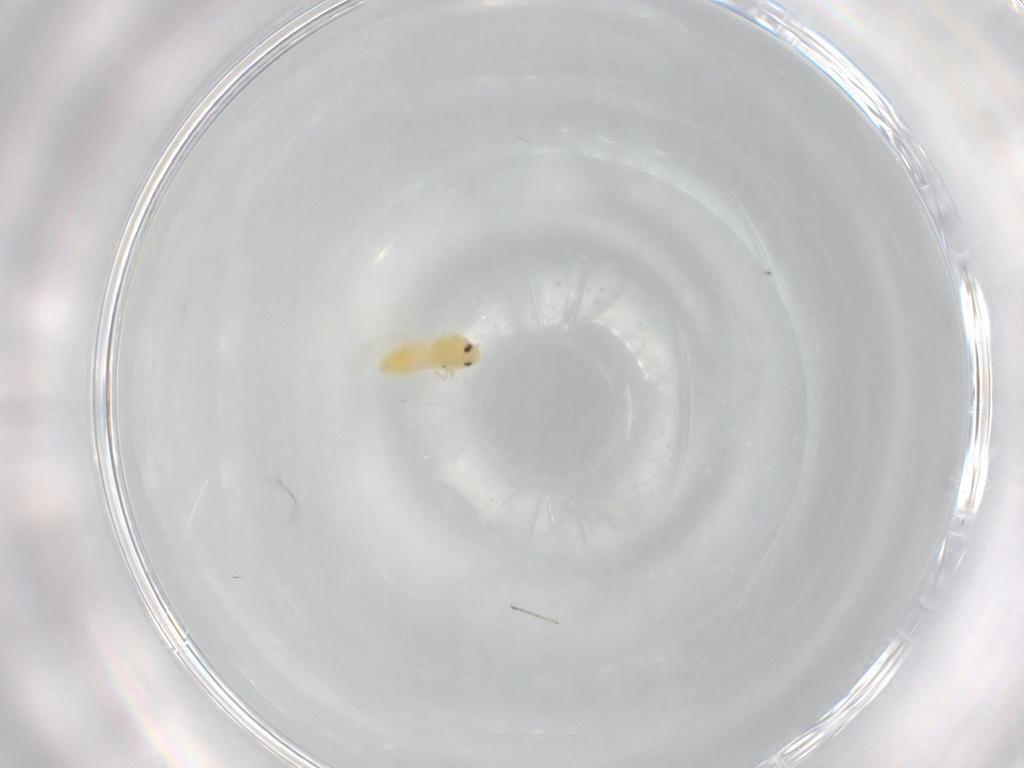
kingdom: Animalia
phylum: Arthropoda
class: Insecta
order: Hemiptera
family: Aleyrodidae
